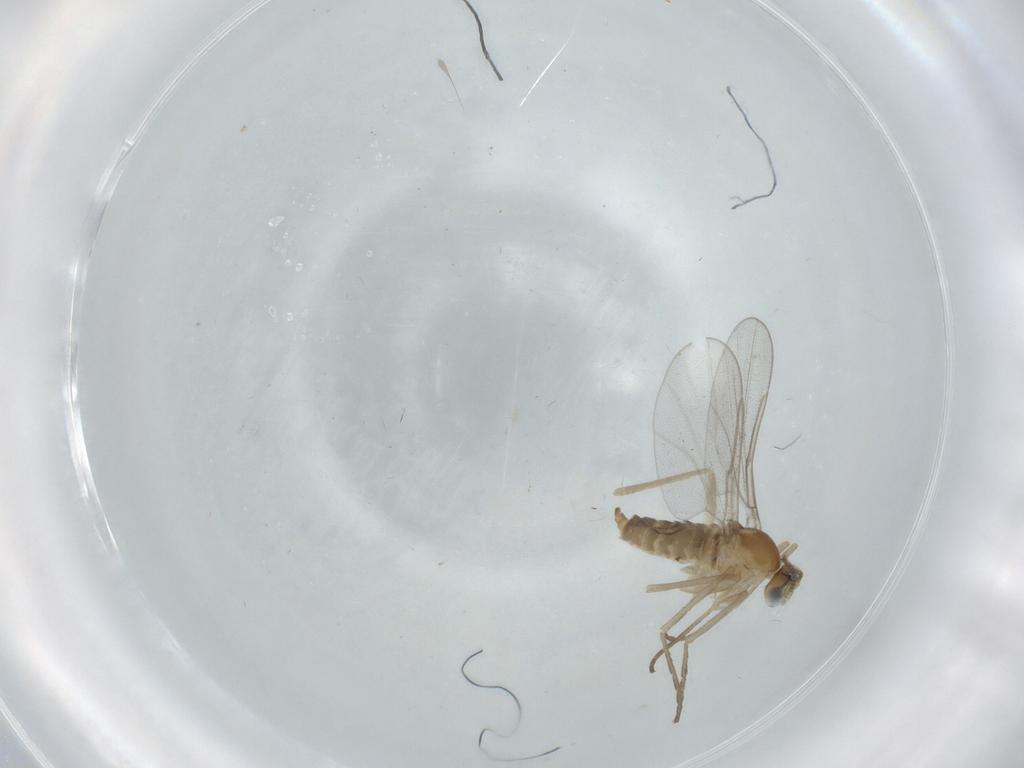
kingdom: Animalia
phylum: Arthropoda
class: Insecta
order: Diptera
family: Cecidomyiidae
